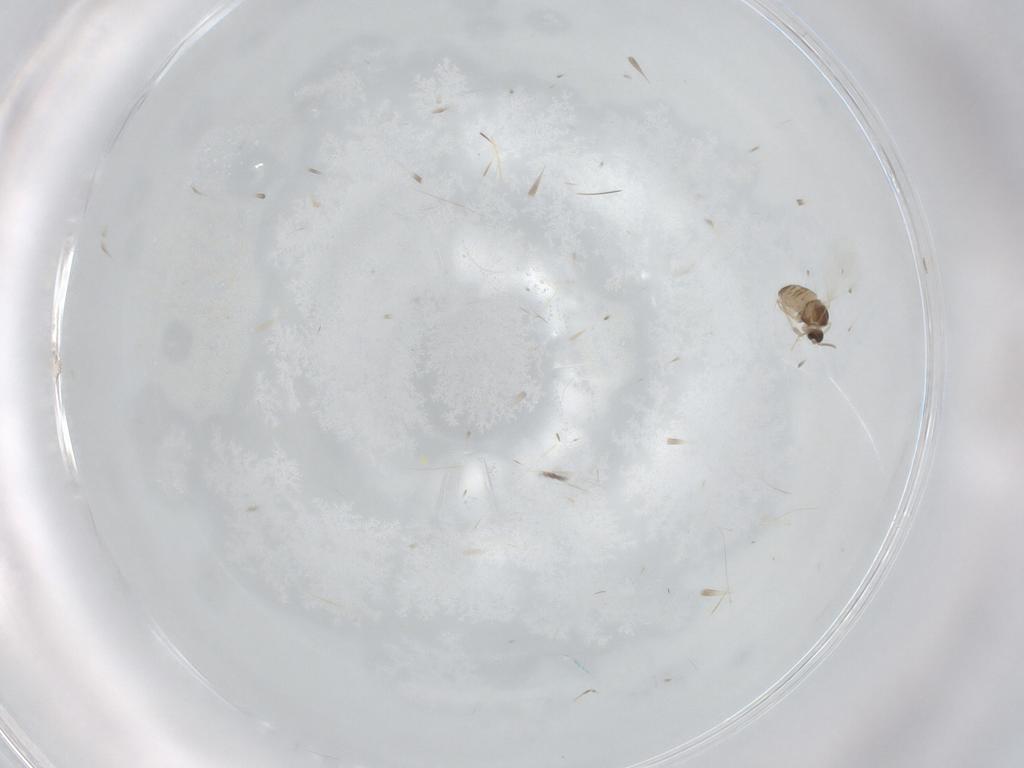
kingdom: Animalia
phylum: Arthropoda
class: Insecta
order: Diptera
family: Cecidomyiidae
